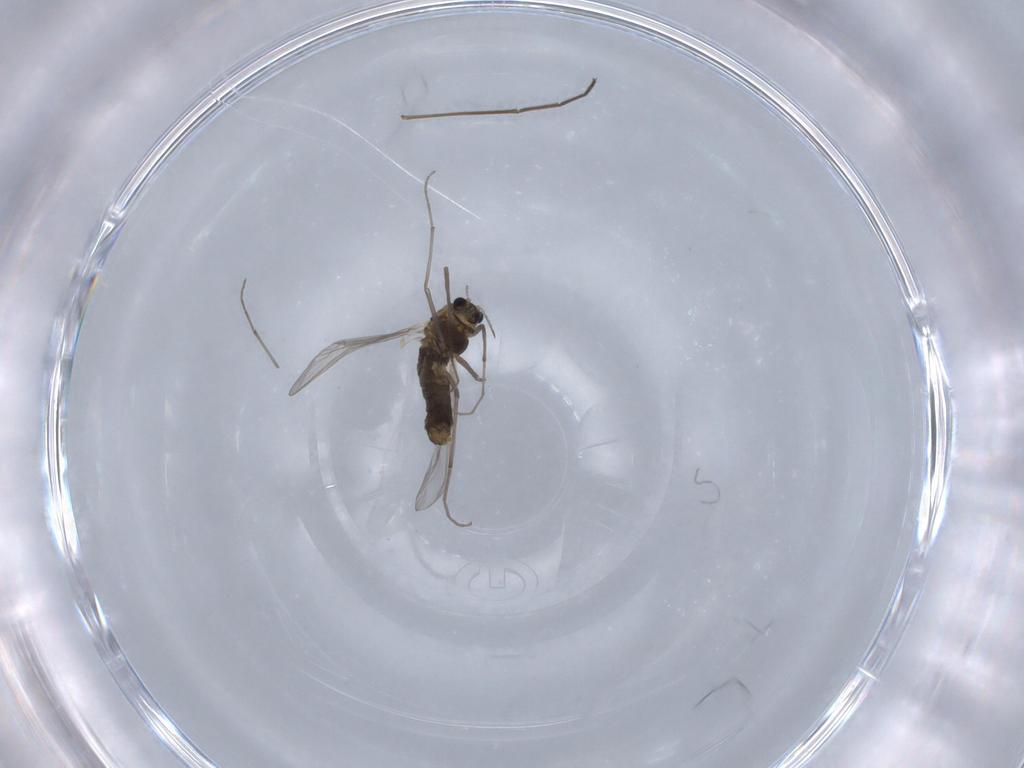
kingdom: Animalia
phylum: Arthropoda
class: Insecta
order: Diptera
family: Chironomidae
